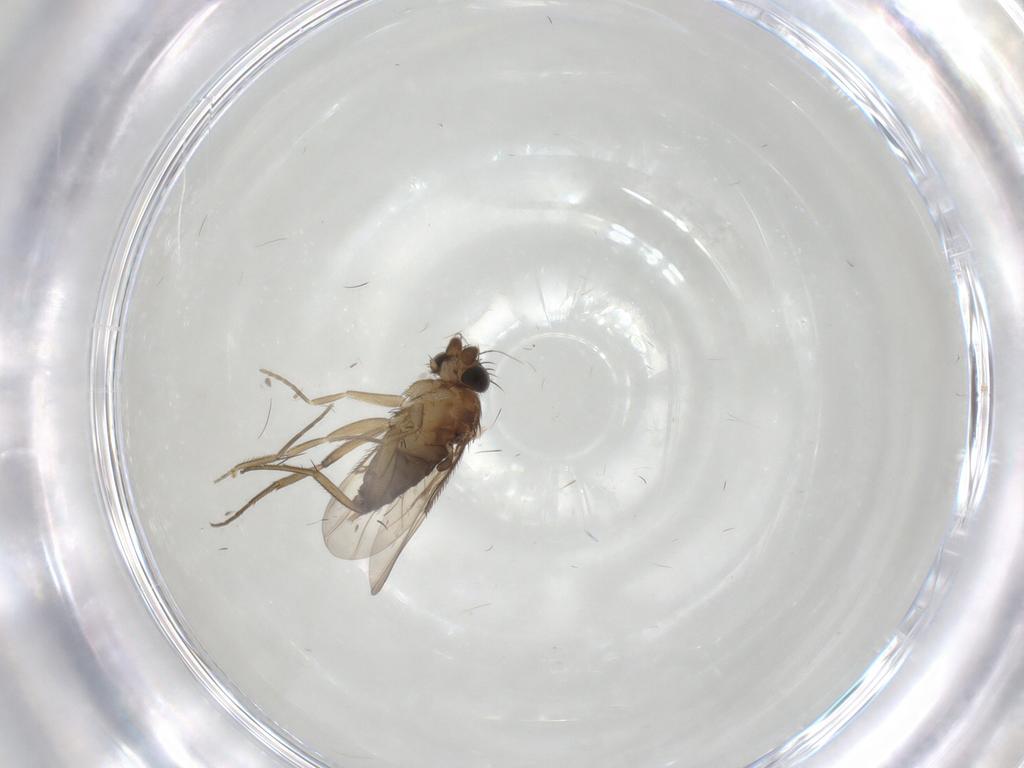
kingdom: Animalia
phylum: Arthropoda
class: Insecta
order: Diptera
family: Phoridae
